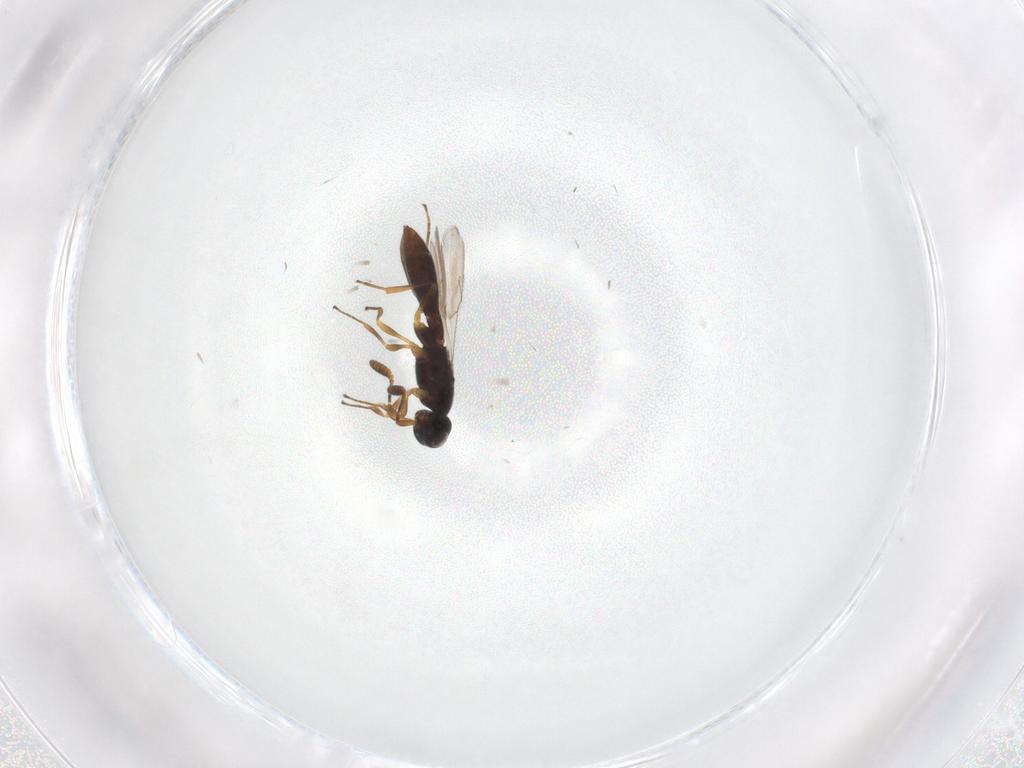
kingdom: Animalia
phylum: Arthropoda
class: Insecta
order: Hymenoptera
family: Scelionidae
